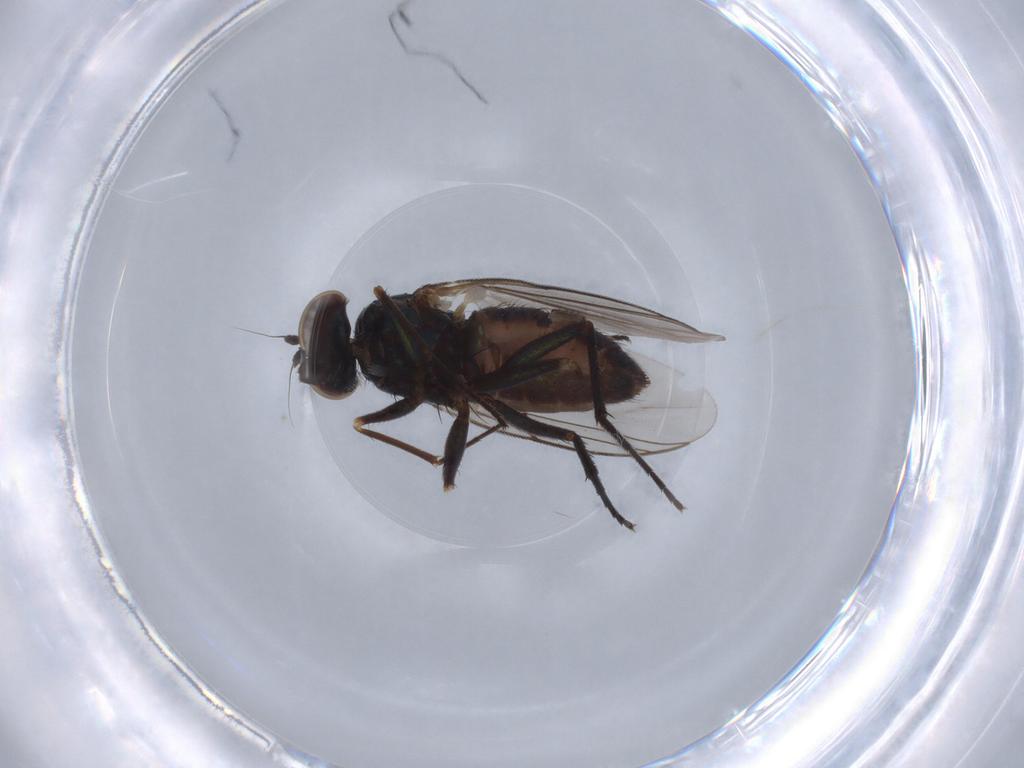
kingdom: Animalia
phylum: Arthropoda
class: Insecta
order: Diptera
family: Dolichopodidae
